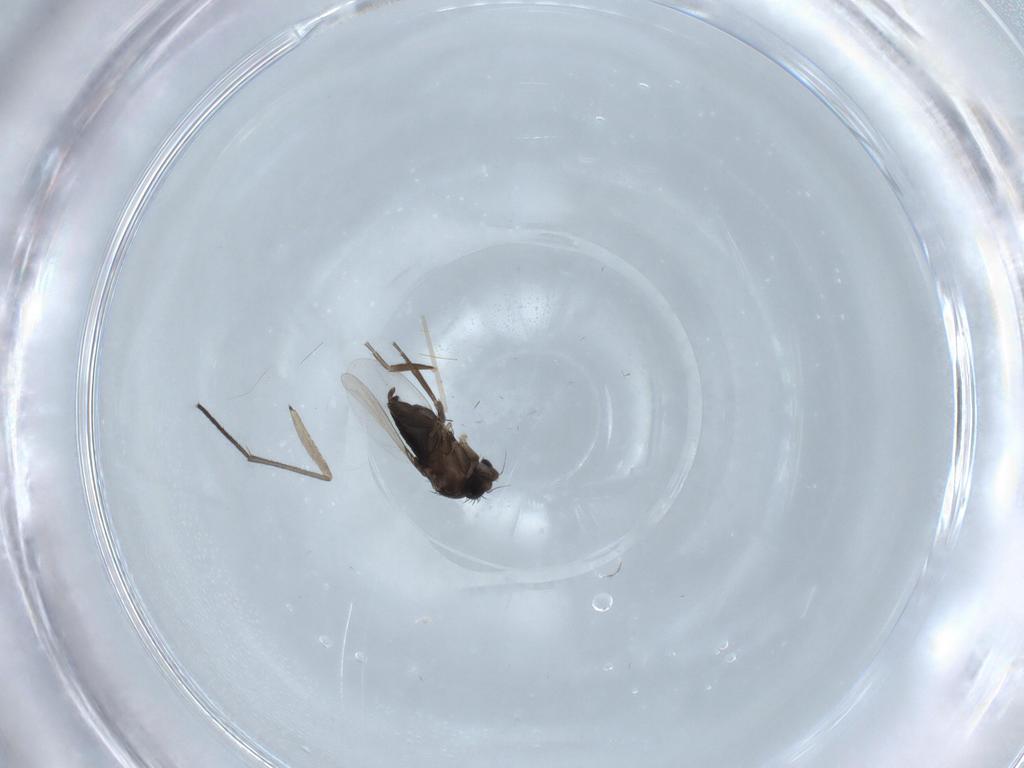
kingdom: Animalia
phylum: Arthropoda
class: Insecta
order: Diptera
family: Phoridae
